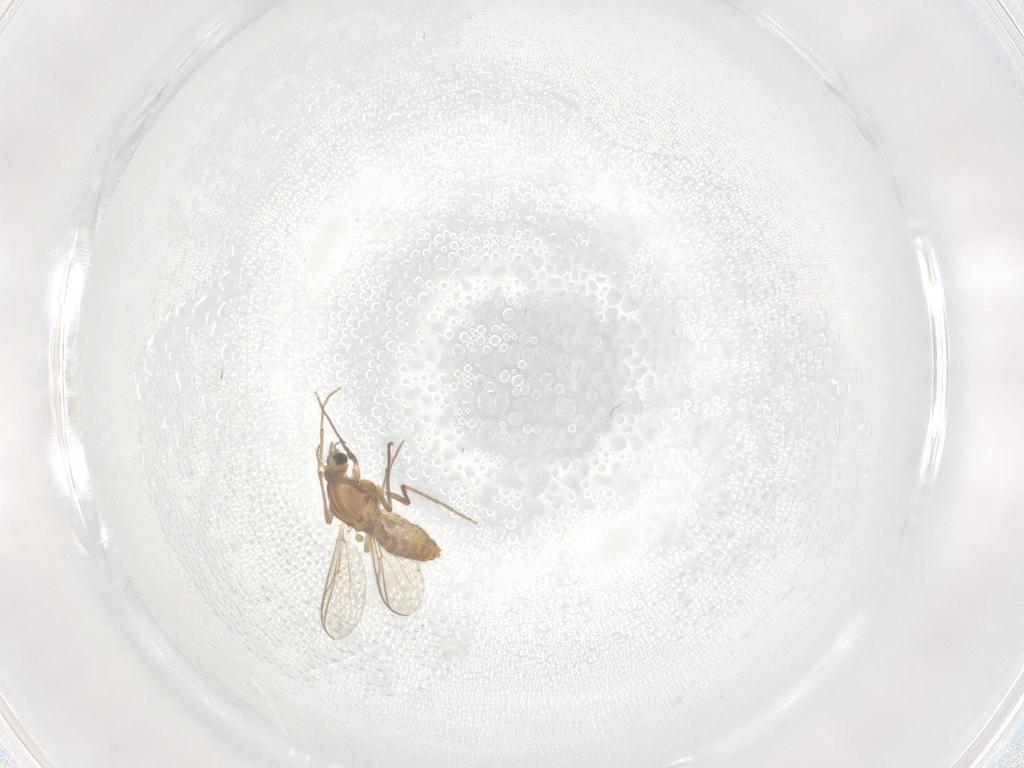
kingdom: Animalia
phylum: Arthropoda
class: Insecta
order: Diptera
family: Chironomidae
